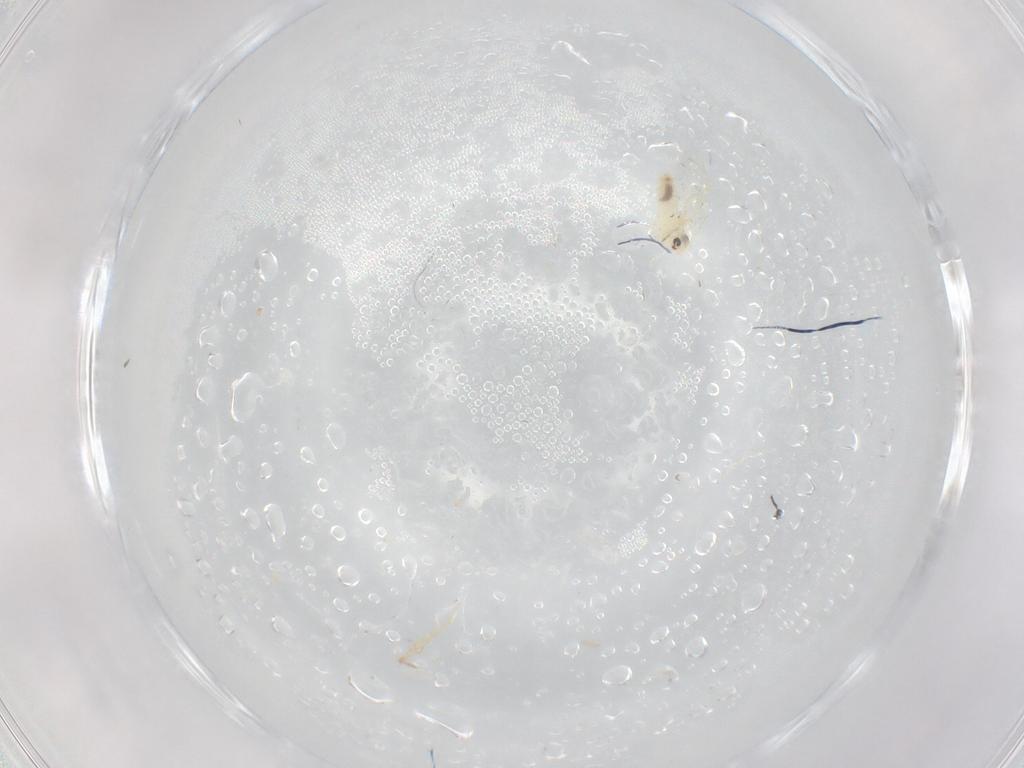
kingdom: Animalia
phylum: Arthropoda
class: Insecta
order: Hemiptera
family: Aleyrodidae
